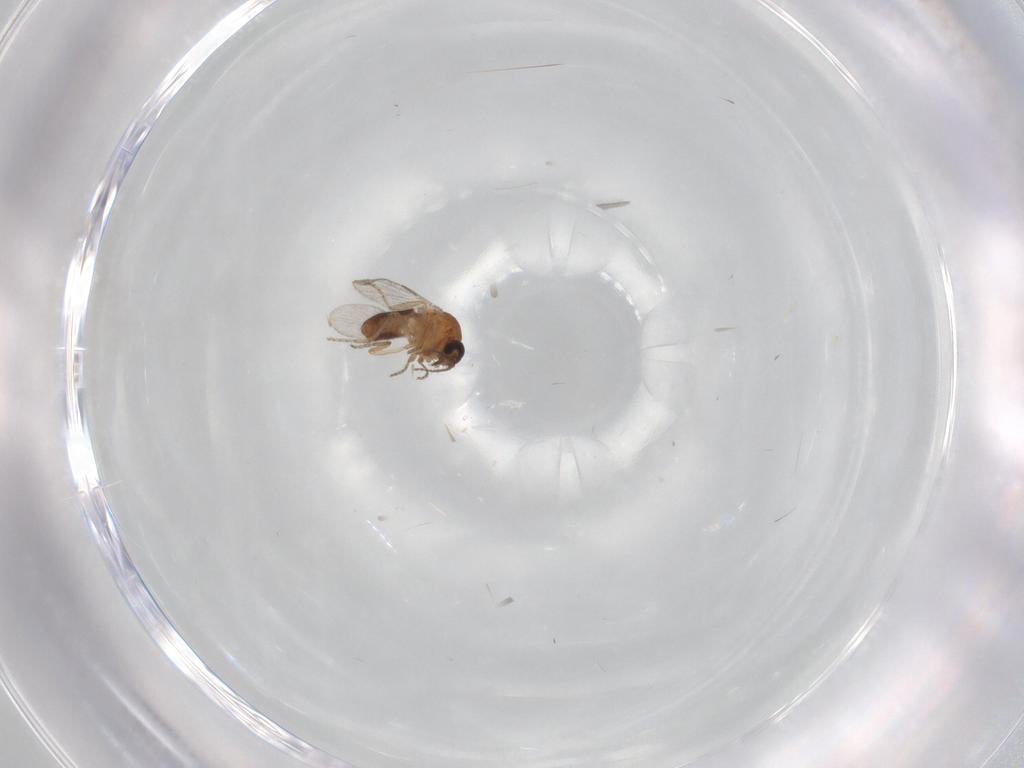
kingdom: Animalia
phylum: Arthropoda
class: Insecta
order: Diptera
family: Ceratopogonidae
